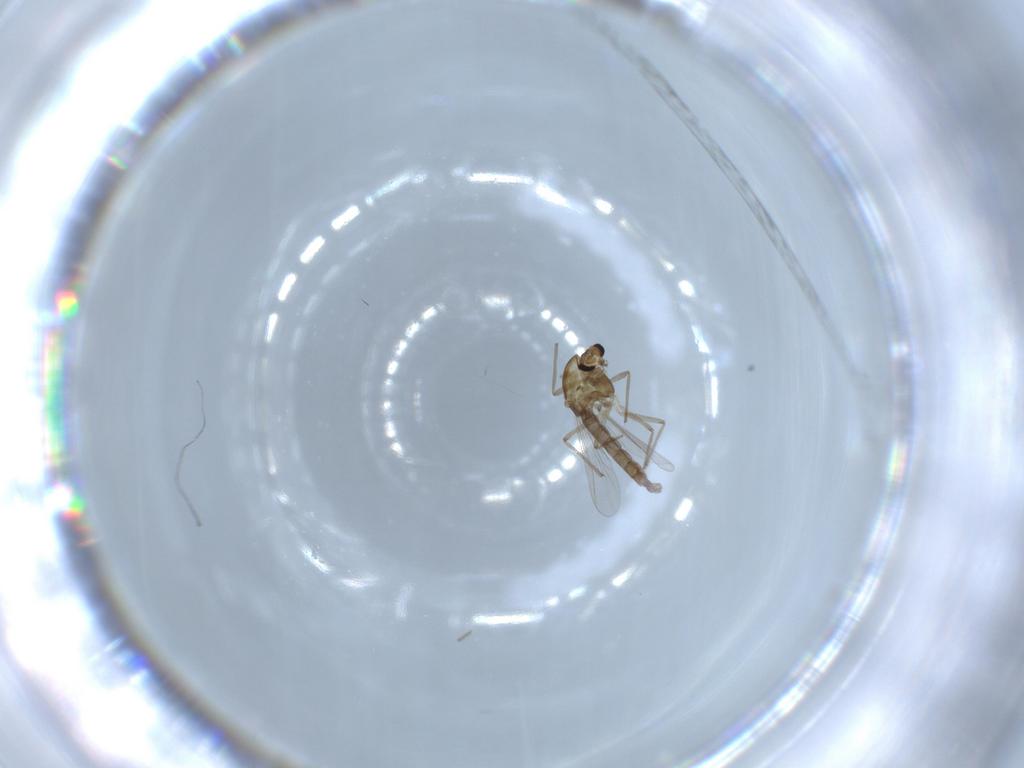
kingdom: Animalia
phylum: Arthropoda
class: Insecta
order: Diptera
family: Chironomidae
